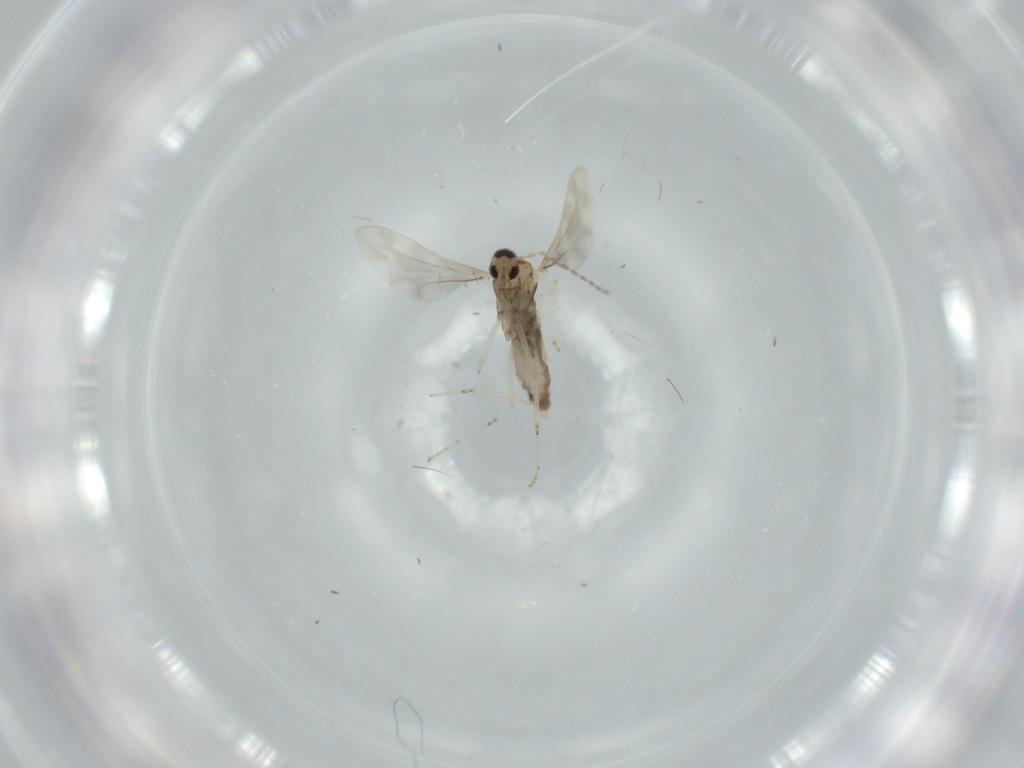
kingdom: Animalia
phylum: Arthropoda
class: Insecta
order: Diptera
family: Cecidomyiidae
